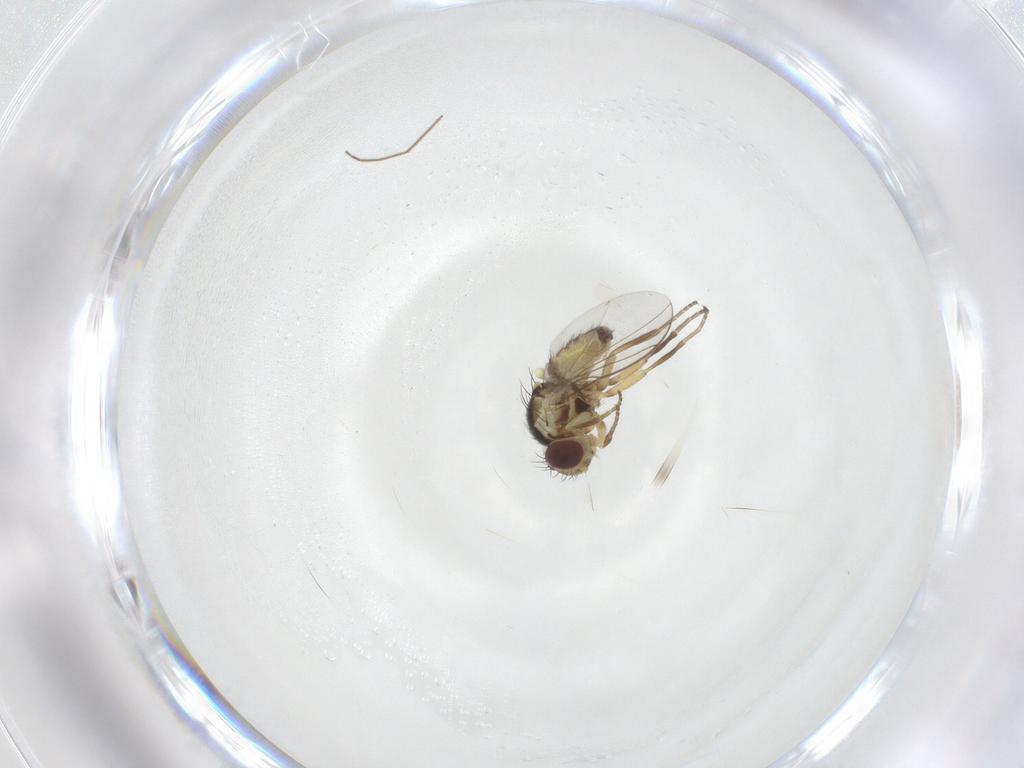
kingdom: Animalia
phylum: Arthropoda
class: Insecta
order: Diptera
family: Agromyzidae
